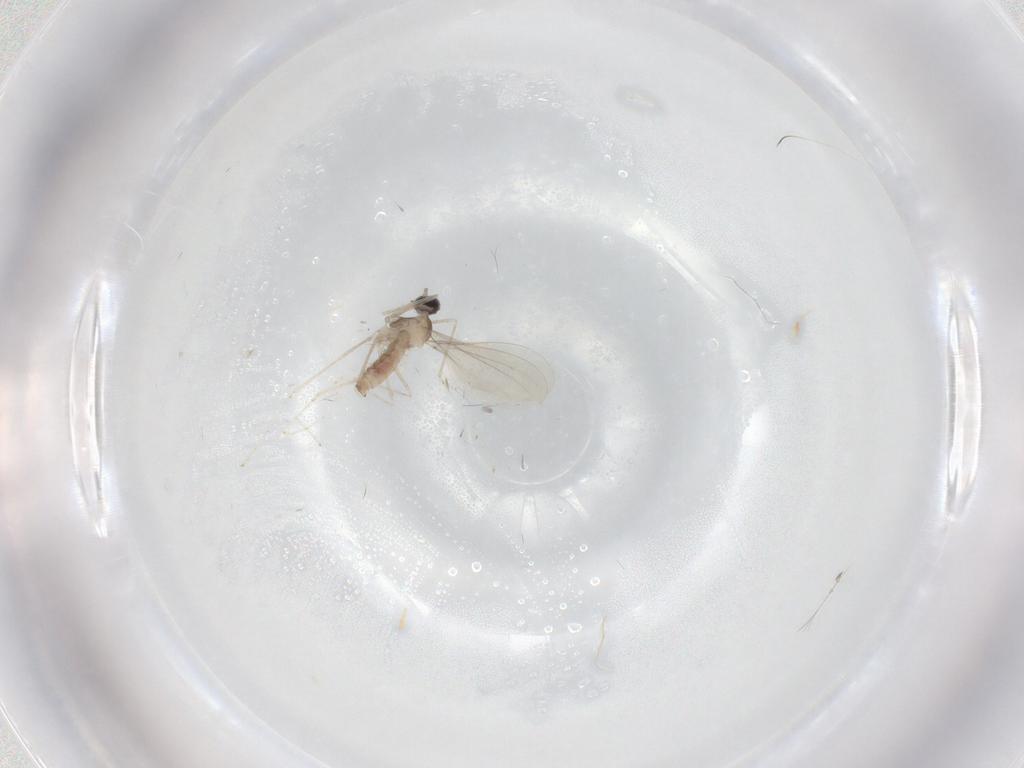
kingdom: Animalia
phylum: Arthropoda
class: Insecta
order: Diptera
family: Cecidomyiidae
